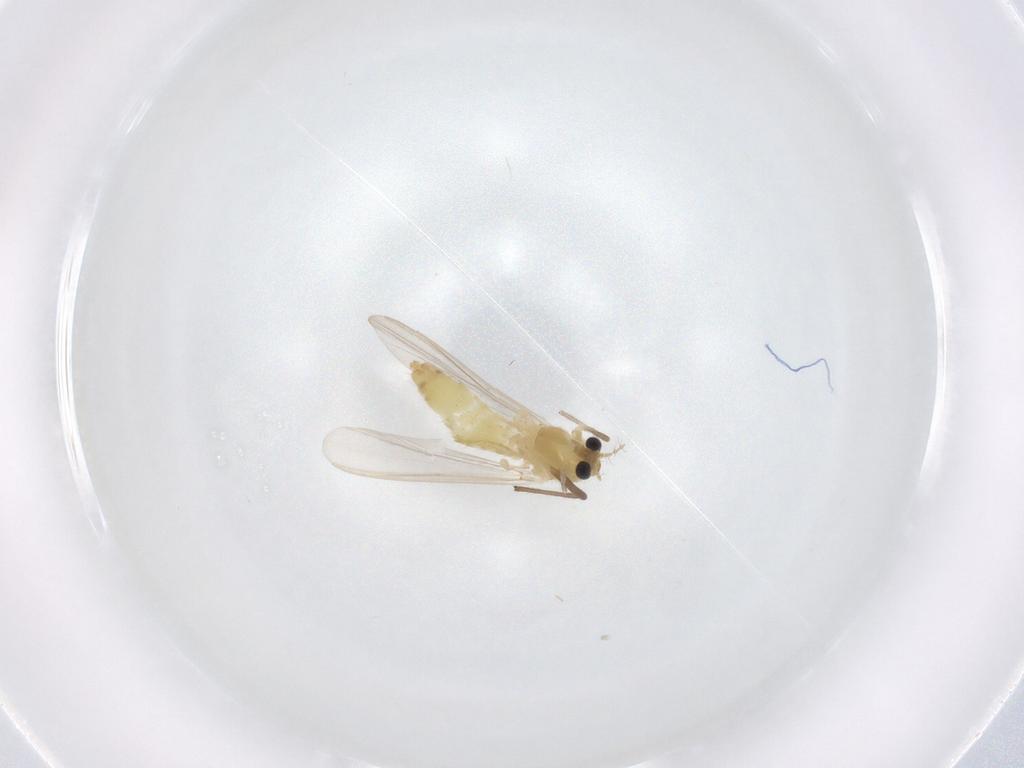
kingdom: Animalia
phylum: Arthropoda
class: Insecta
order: Diptera
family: Chironomidae
